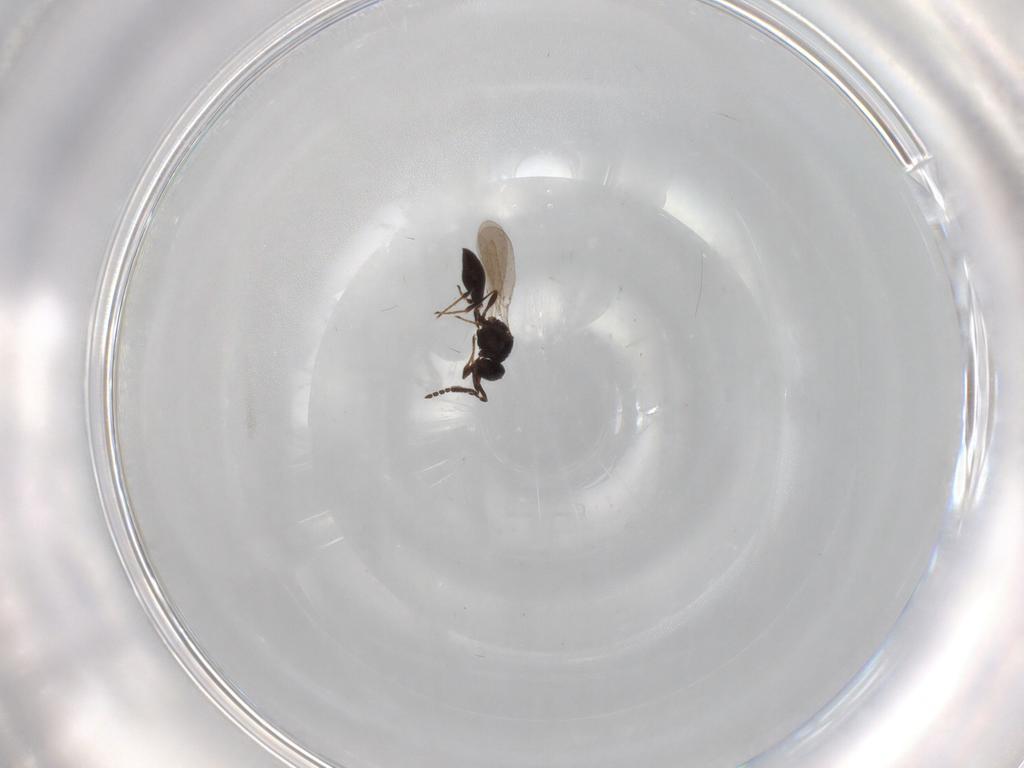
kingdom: Animalia
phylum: Arthropoda
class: Insecta
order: Hymenoptera
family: Platygastridae
